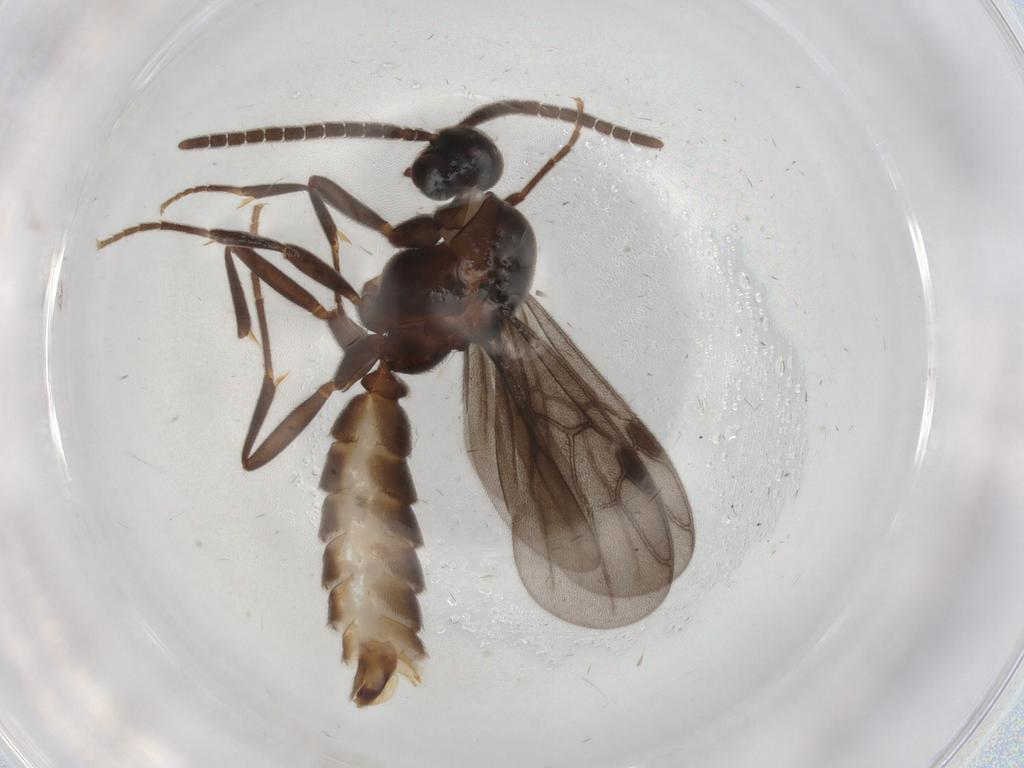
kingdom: Animalia
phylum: Arthropoda
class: Insecta
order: Hymenoptera
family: Formicidae
